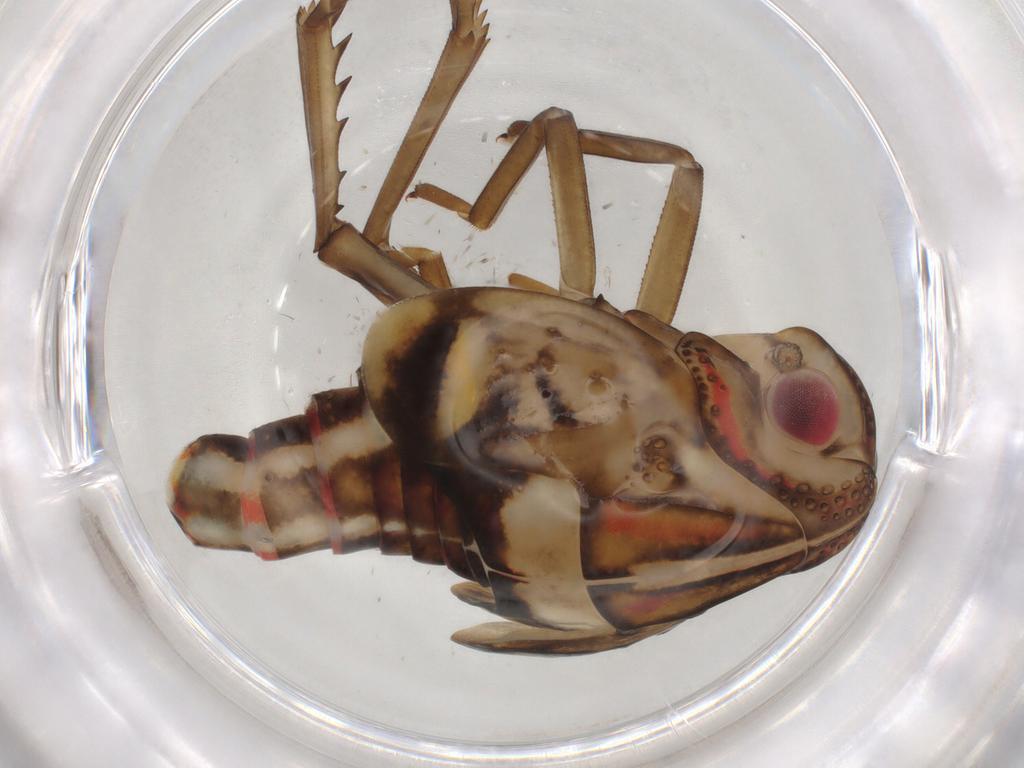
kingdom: Animalia
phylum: Arthropoda
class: Insecta
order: Hemiptera
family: Nogodinidae
